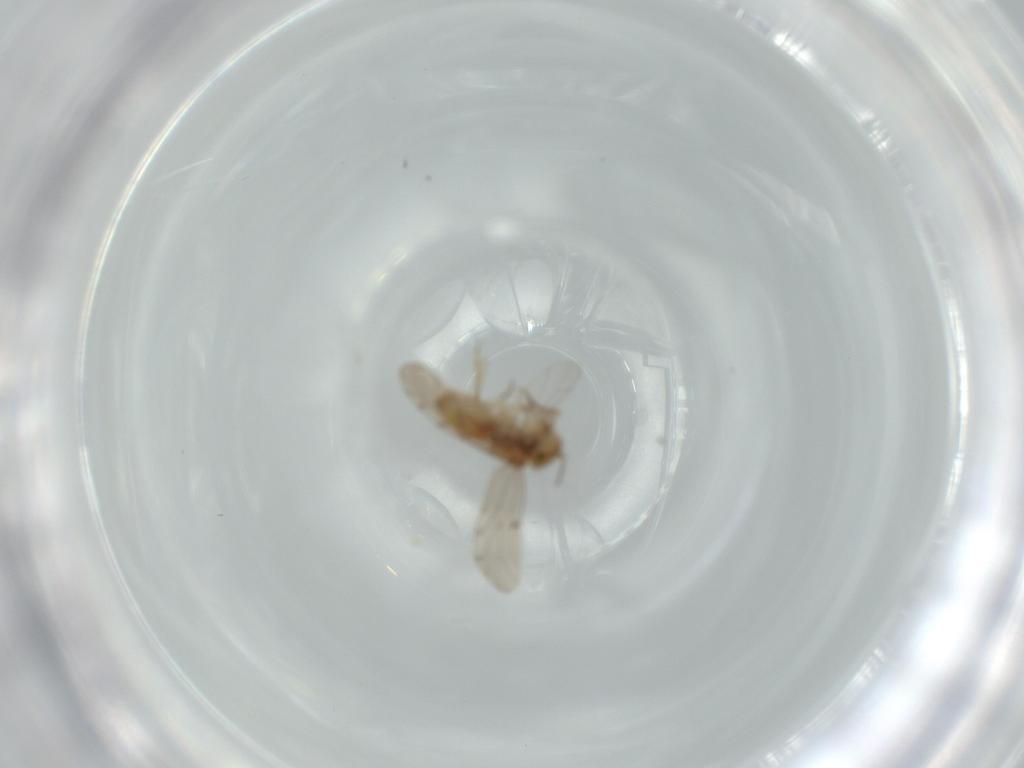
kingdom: Animalia
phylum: Arthropoda
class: Insecta
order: Psocodea
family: Ectopsocidae
